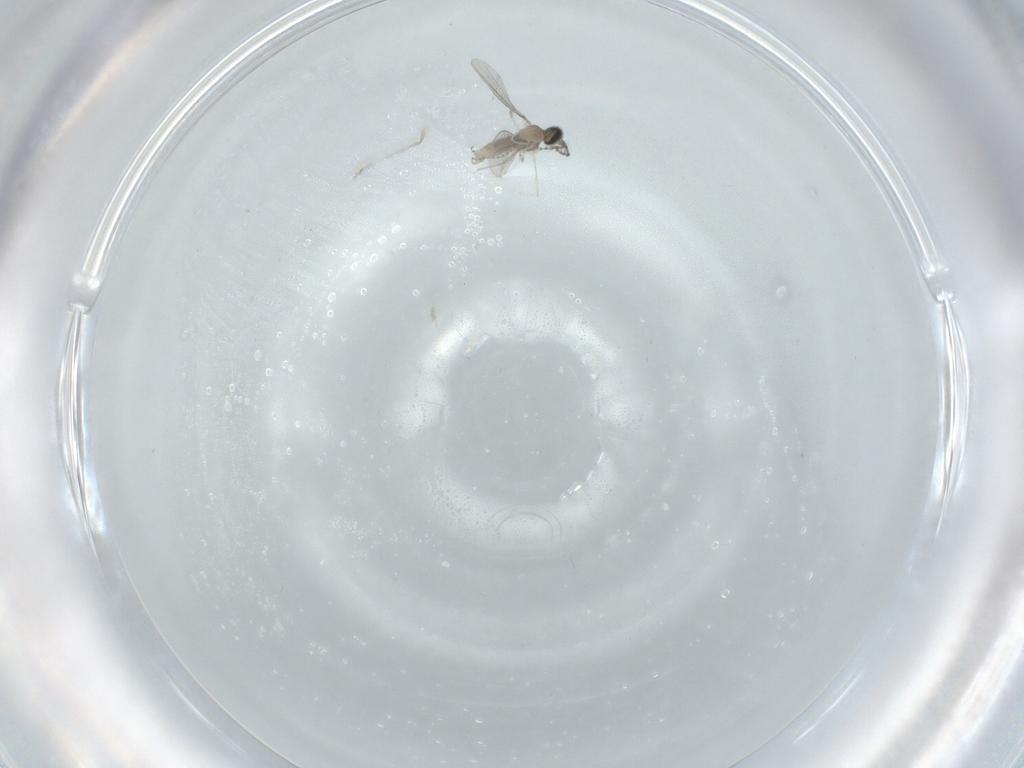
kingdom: Animalia
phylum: Arthropoda
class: Insecta
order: Diptera
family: Cecidomyiidae
